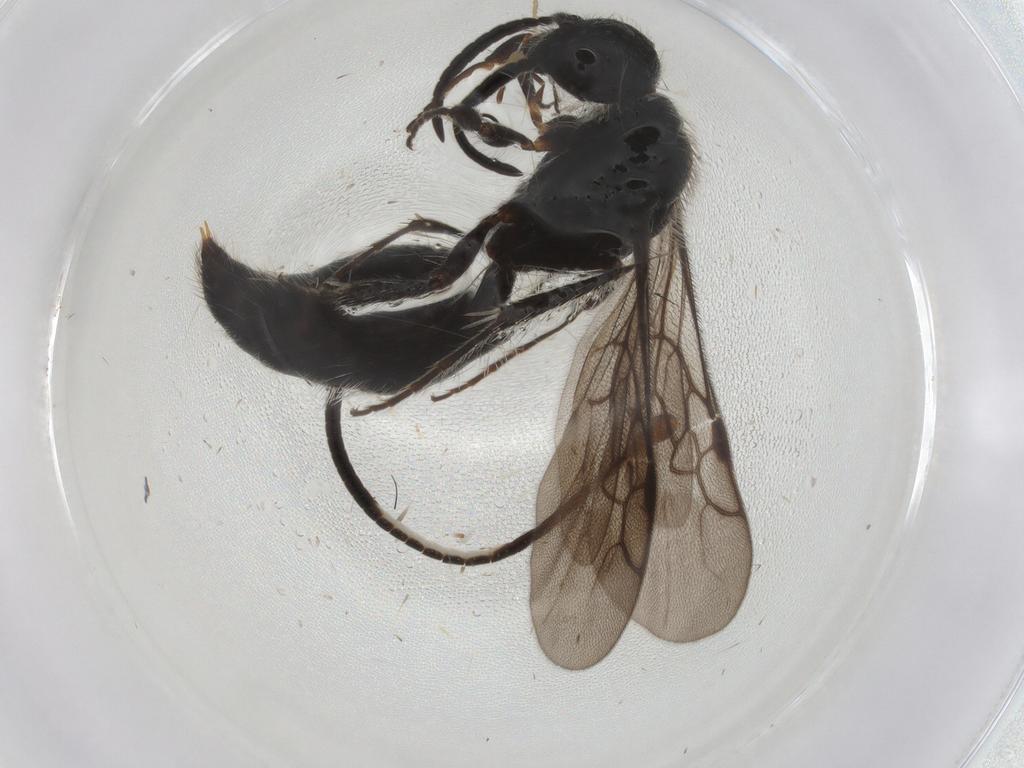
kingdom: Animalia
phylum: Arthropoda
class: Insecta
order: Hymenoptera
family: Ichneumonidae
